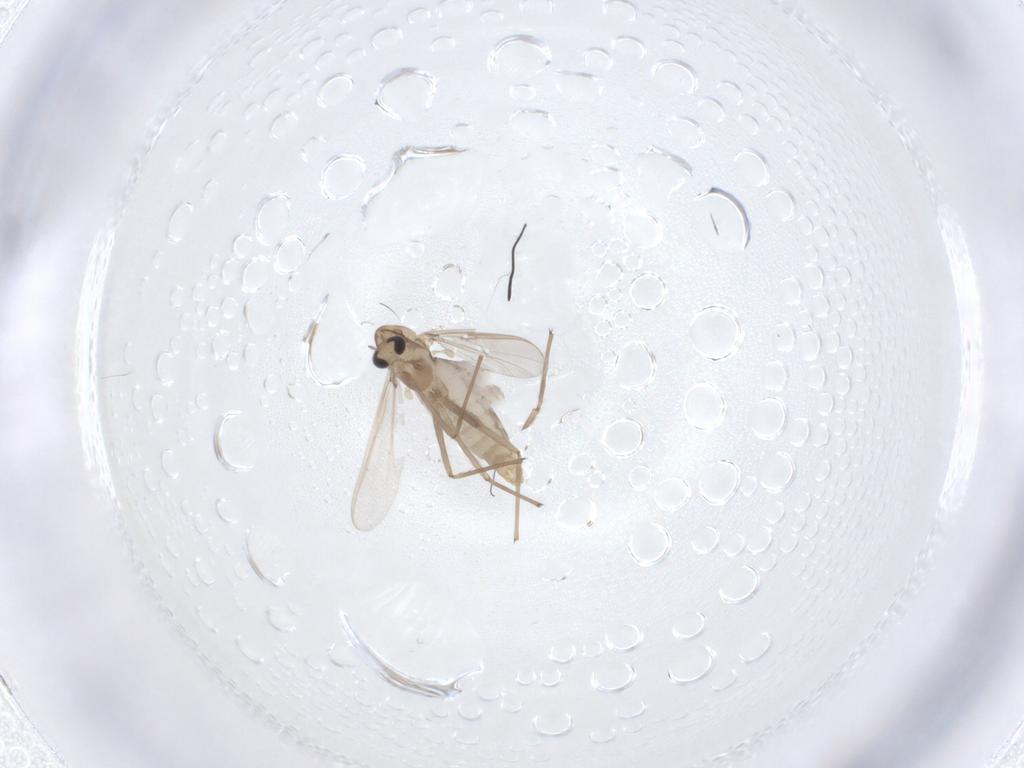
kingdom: Animalia
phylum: Arthropoda
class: Insecta
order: Diptera
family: Chironomidae
